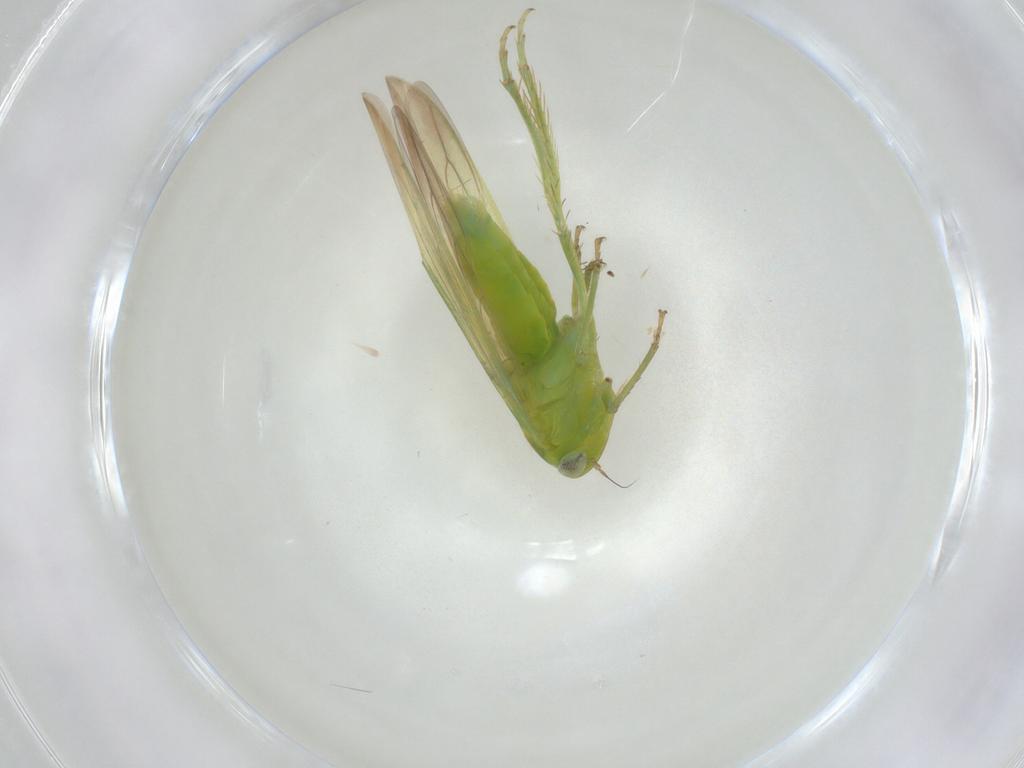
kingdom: Animalia
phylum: Arthropoda
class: Insecta
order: Hemiptera
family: Cicadellidae
